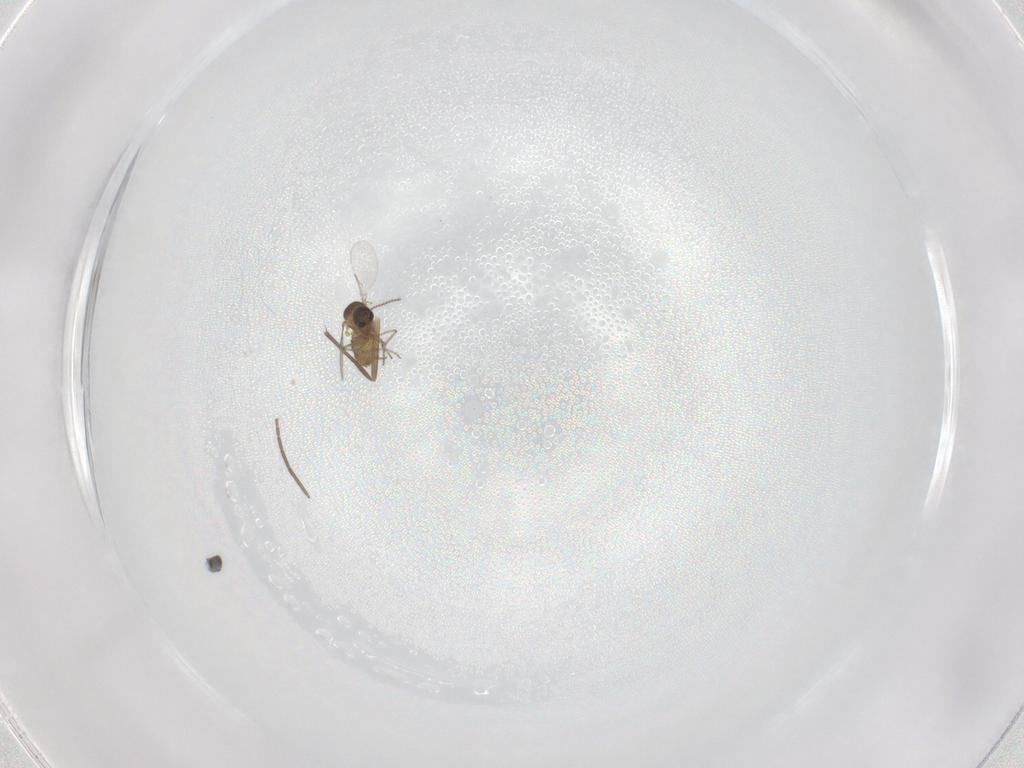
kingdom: Animalia
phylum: Arthropoda
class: Insecta
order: Diptera
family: Ceratopogonidae
